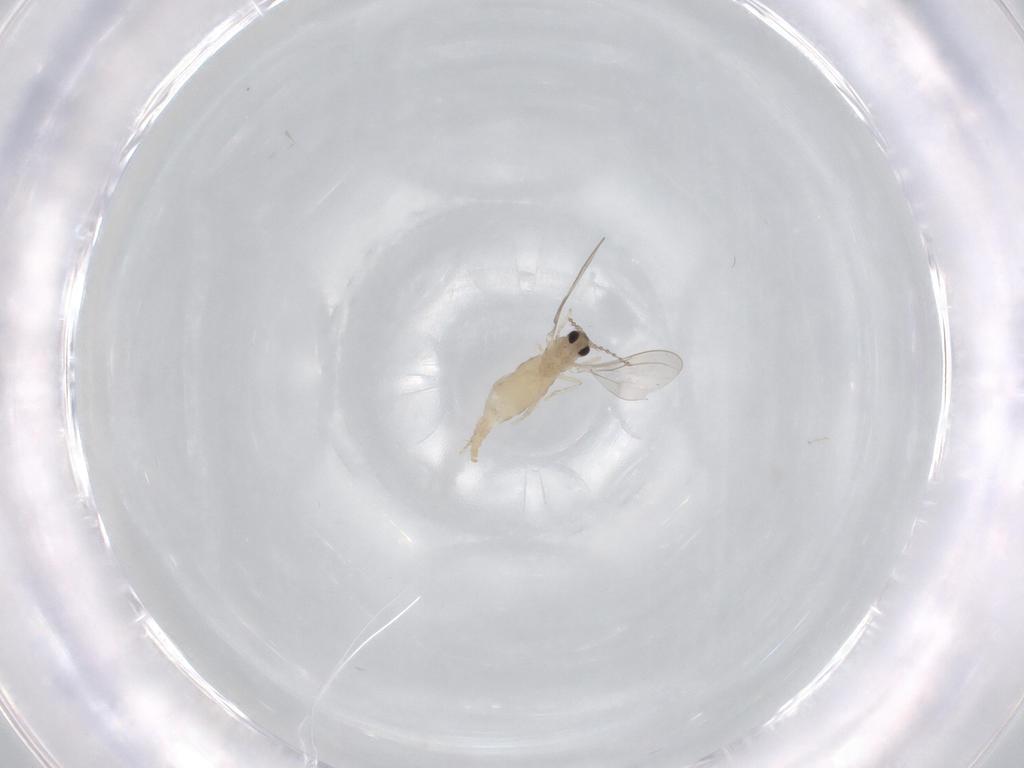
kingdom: Animalia
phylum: Arthropoda
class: Insecta
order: Diptera
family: Cecidomyiidae
